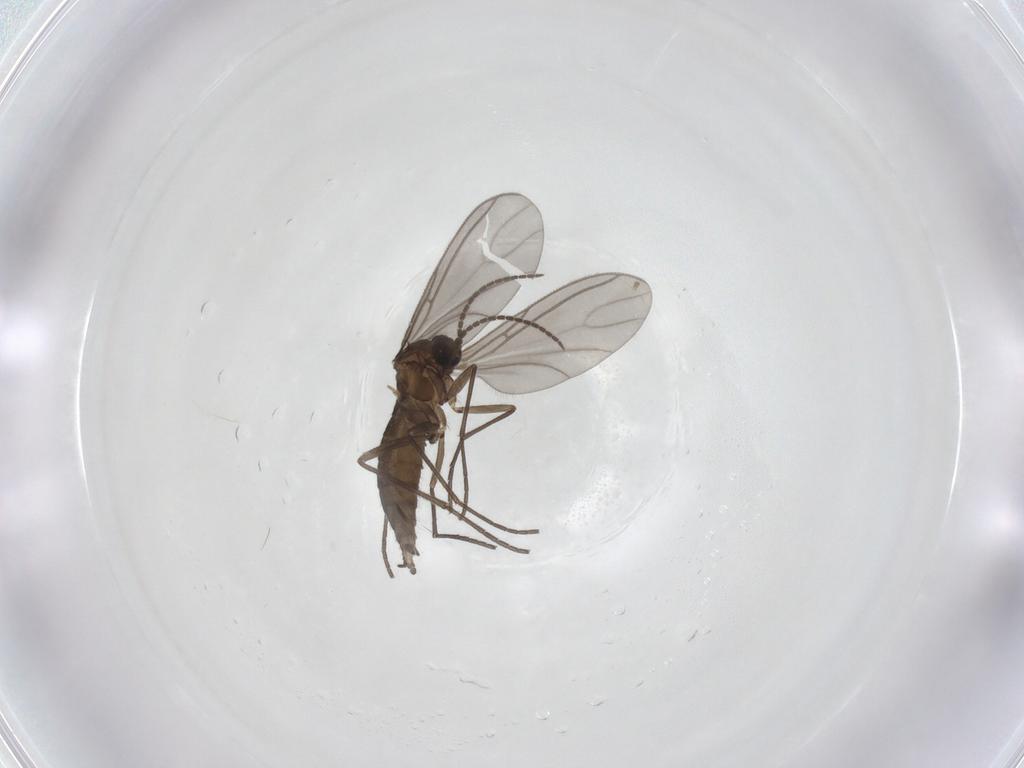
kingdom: Animalia
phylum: Arthropoda
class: Insecta
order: Diptera
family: Sciaridae
